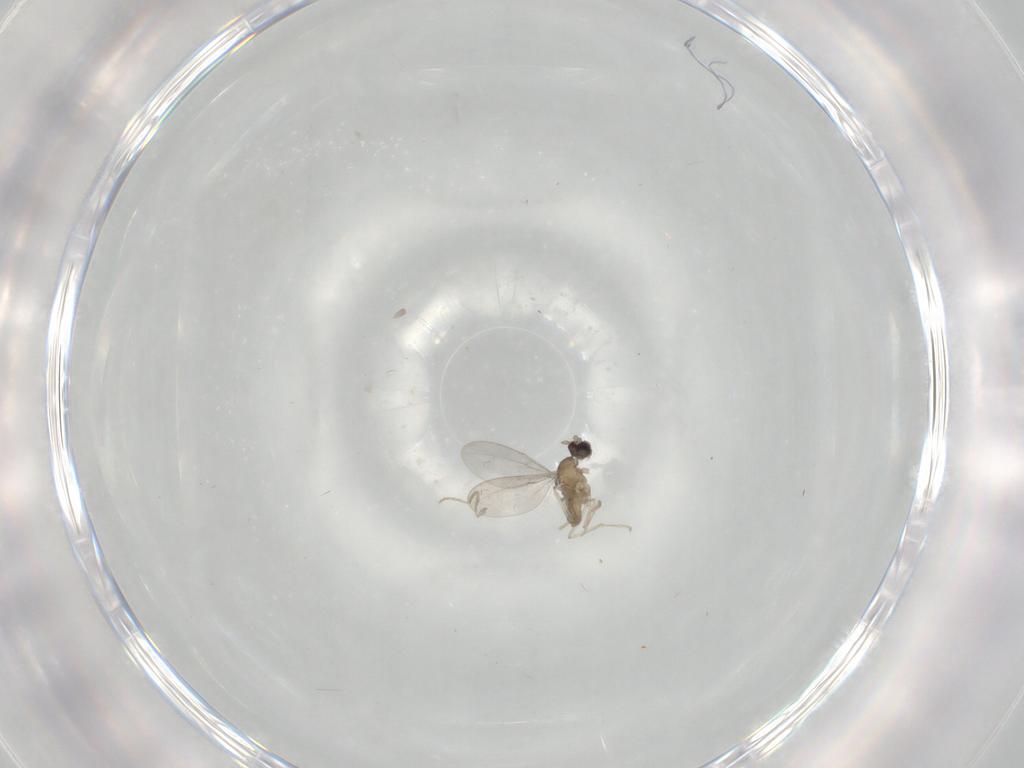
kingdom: Animalia
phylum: Arthropoda
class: Insecta
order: Diptera
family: Cecidomyiidae
